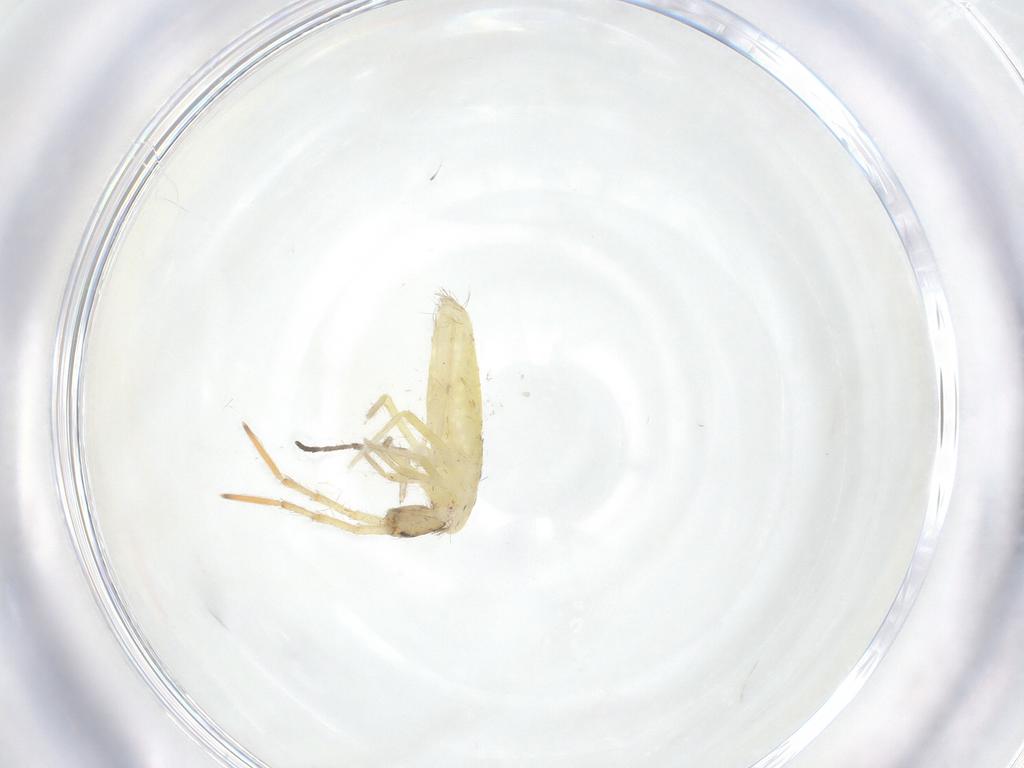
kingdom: Animalia
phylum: Arthropoda
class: Collembola
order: Entomobryomorpha
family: Entomobryidae
